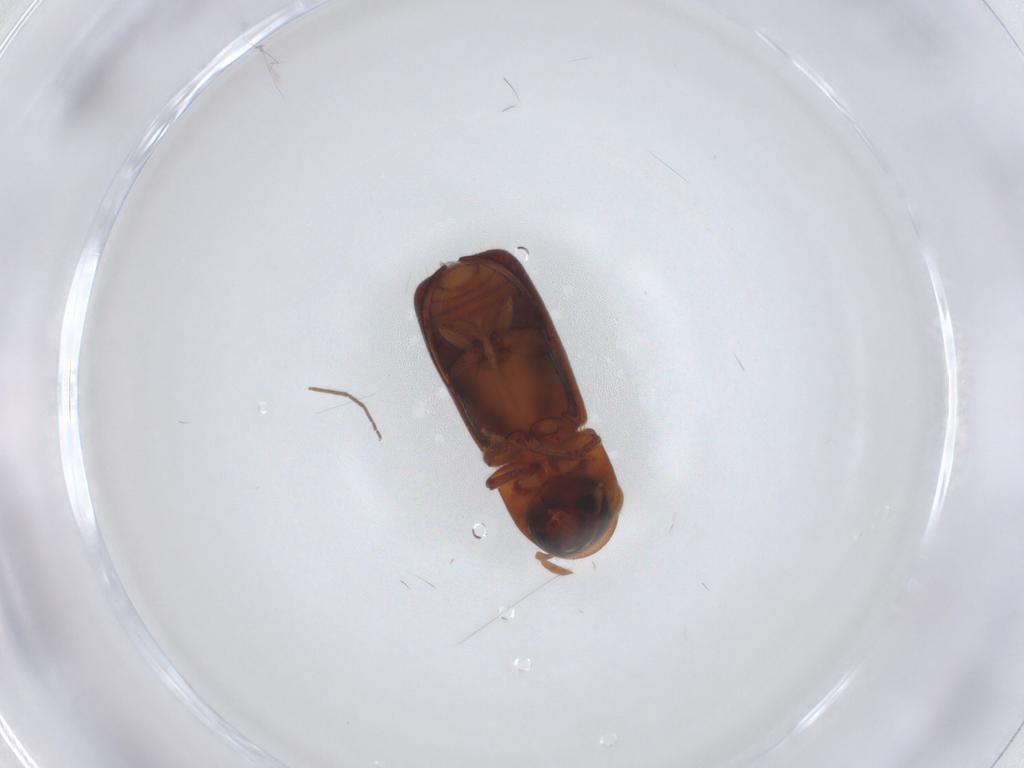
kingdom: Animalia
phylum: Arthropoda
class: Insecta
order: Coleoptera
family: Curculionidae
